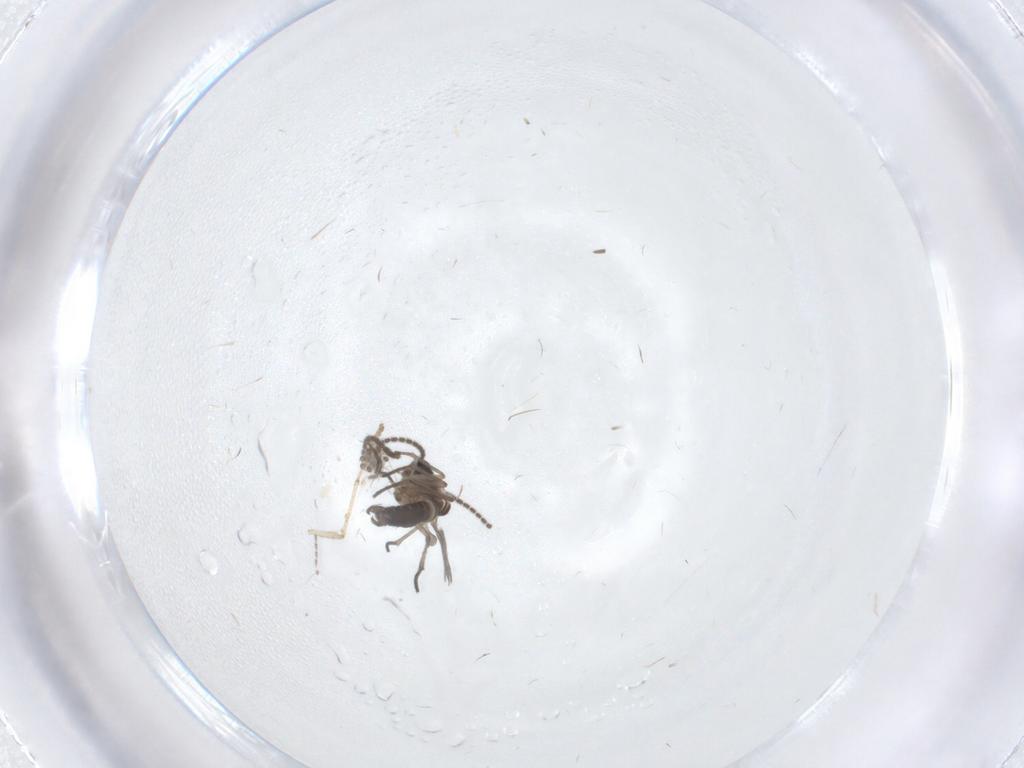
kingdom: Animalia
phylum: Arthropoda
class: Insecta
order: Diptera
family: Sciaridae
